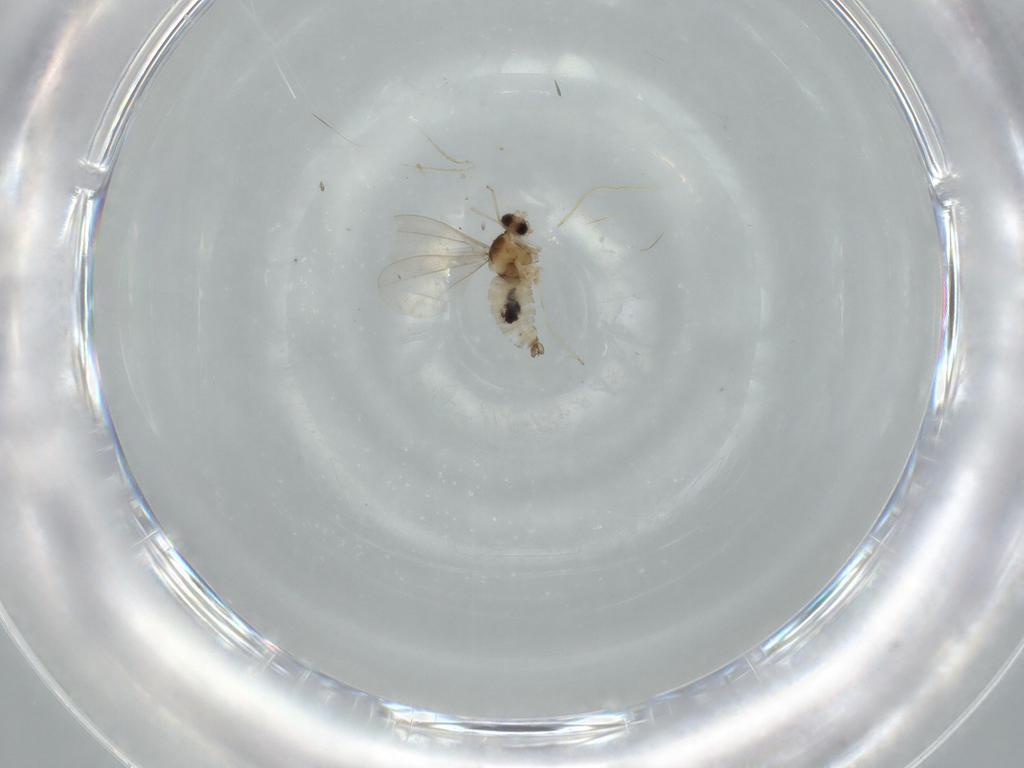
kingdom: Animalia
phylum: Arthropoda
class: Insecta
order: Diptera
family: Cecidomyiidae
